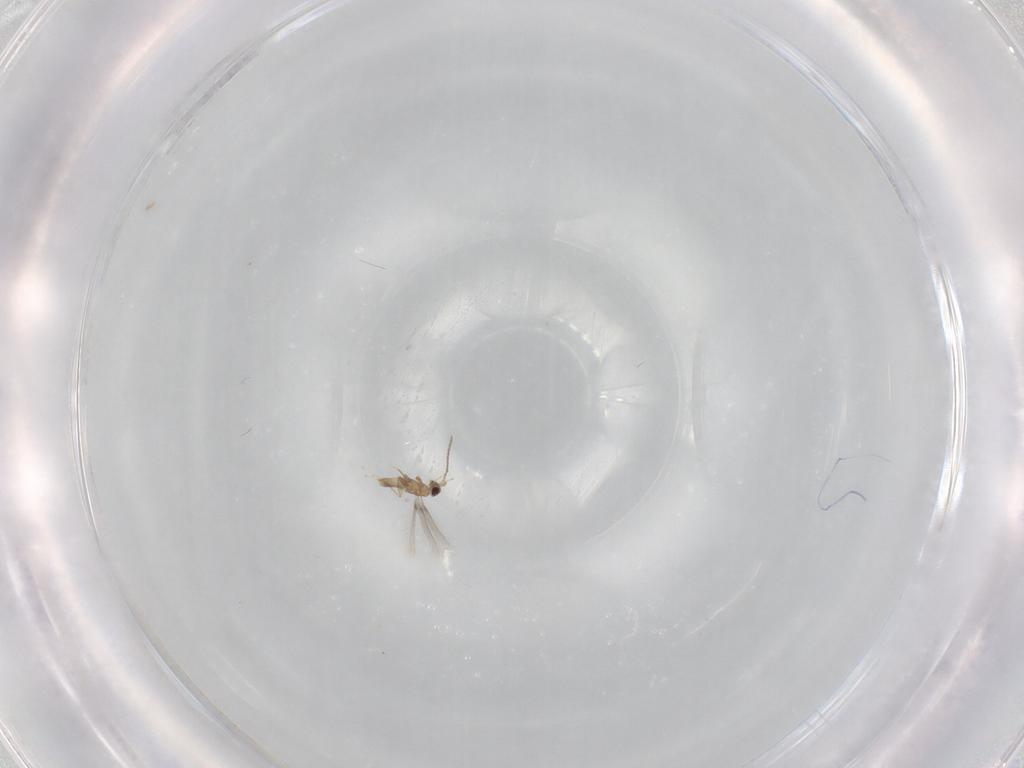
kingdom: Animalia
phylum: Arthropoda
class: Insecta
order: Hymenoptera
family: Mymaridae
